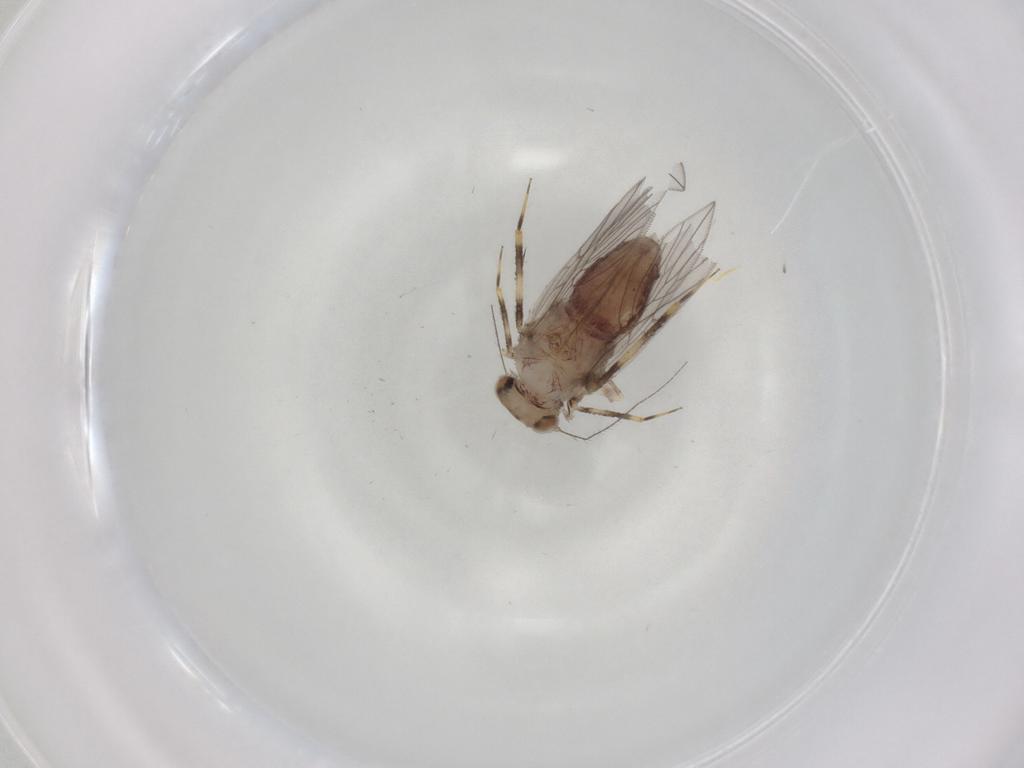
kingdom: Animalia
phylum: Arthropoda
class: Insecta
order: Psocodea
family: Lepidopsocidae
